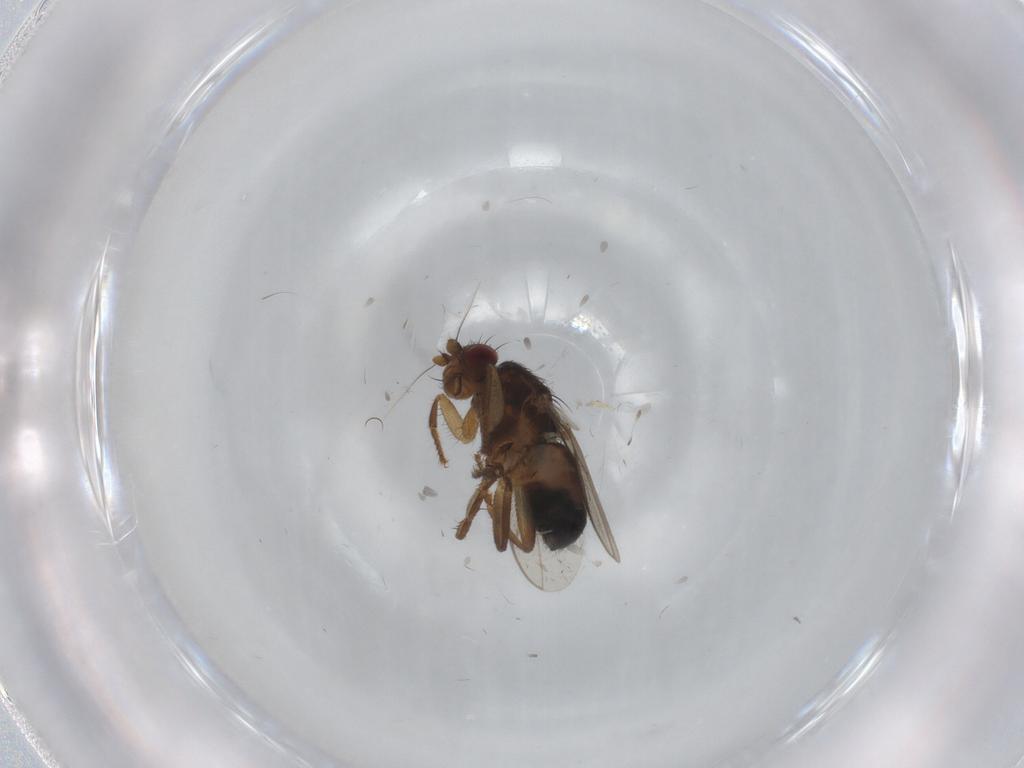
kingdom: Animalia
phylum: Arthropoda
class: Insecta
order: Diptera
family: Sphaeroceridae
